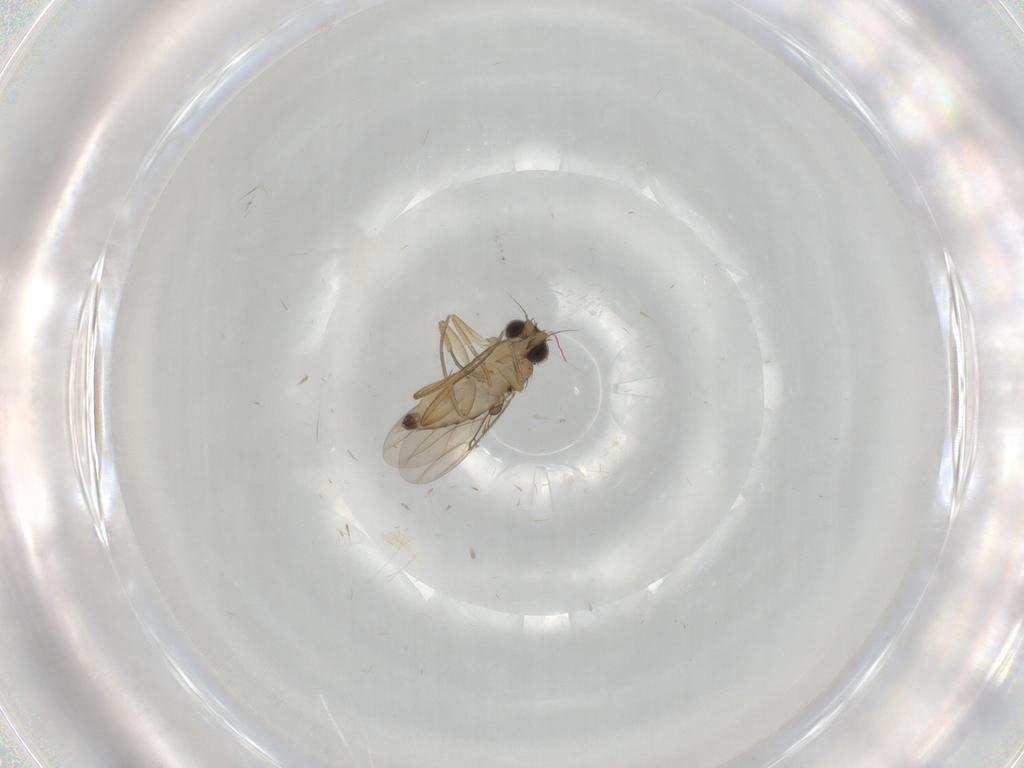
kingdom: Animalia
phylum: Arthropoda
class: Insecta
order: Diptera
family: Phoridae
